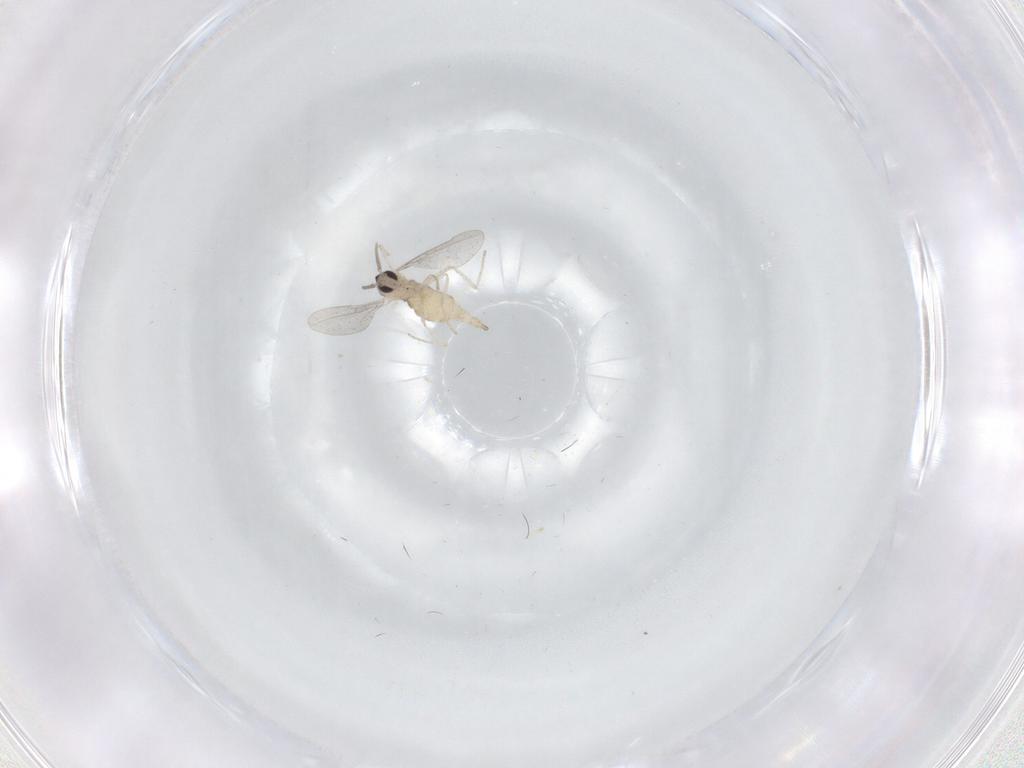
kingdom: Animalia
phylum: Arthropoda
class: Insecta
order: Diptera
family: Cecidomyiidae
